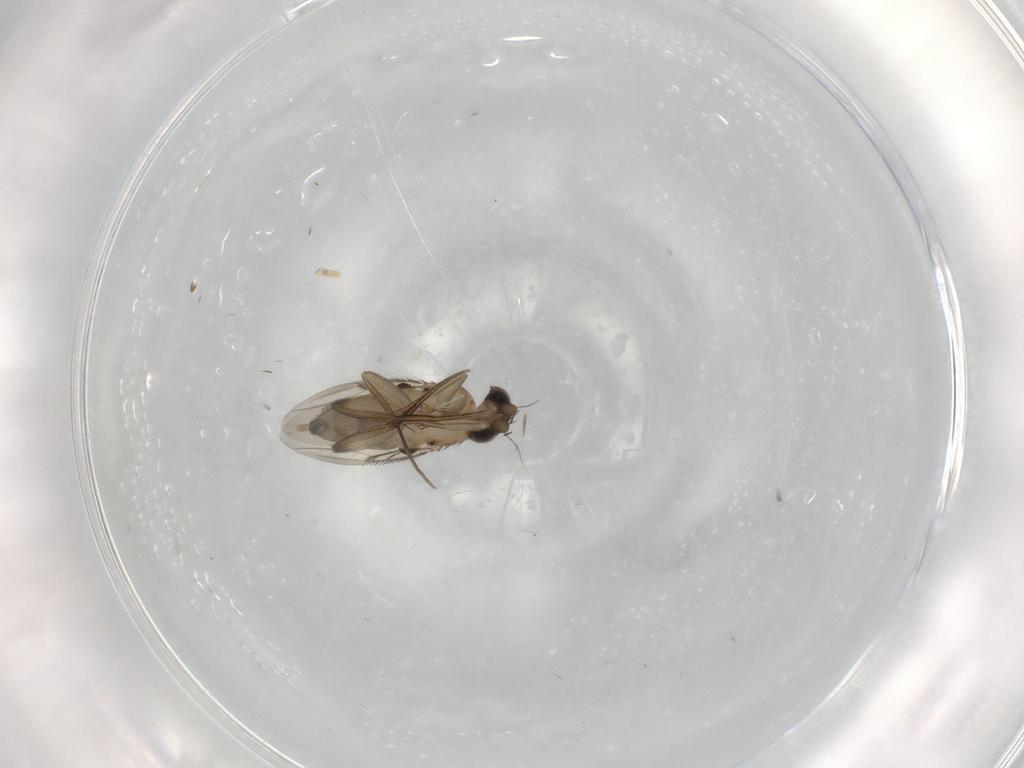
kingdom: Animalia
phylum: Arthropoda
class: Insecta
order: Diptera
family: Phoridae
